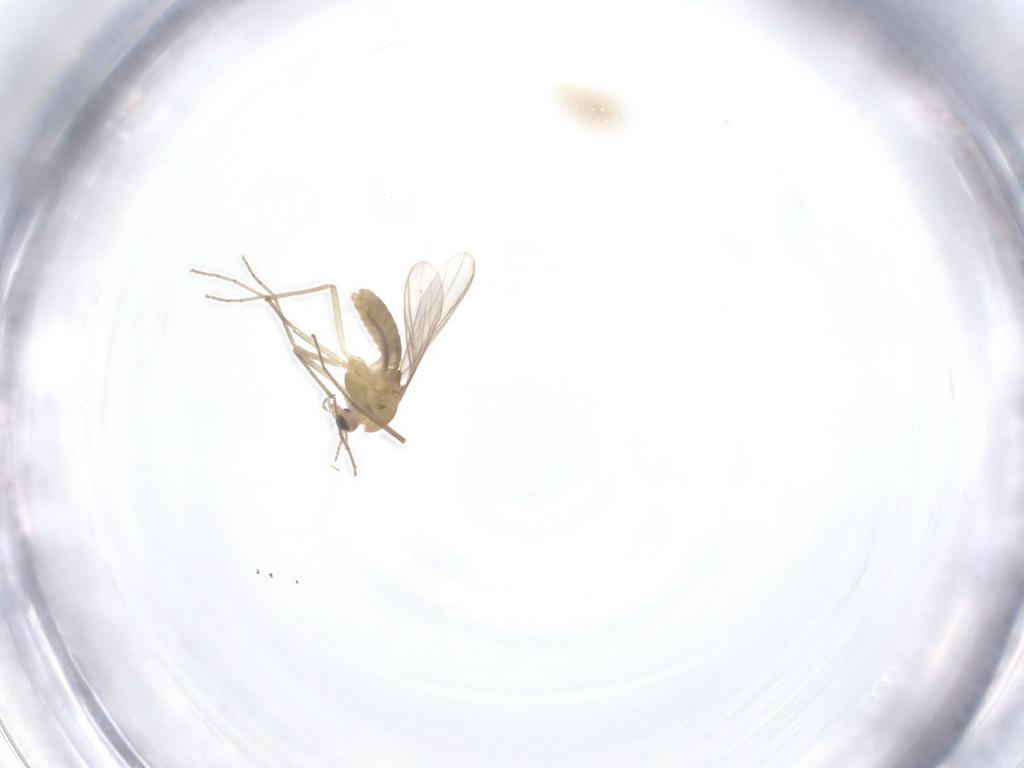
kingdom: Animalia
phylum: Arthropoda
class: Insecta
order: Diptera
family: Chironomidae
